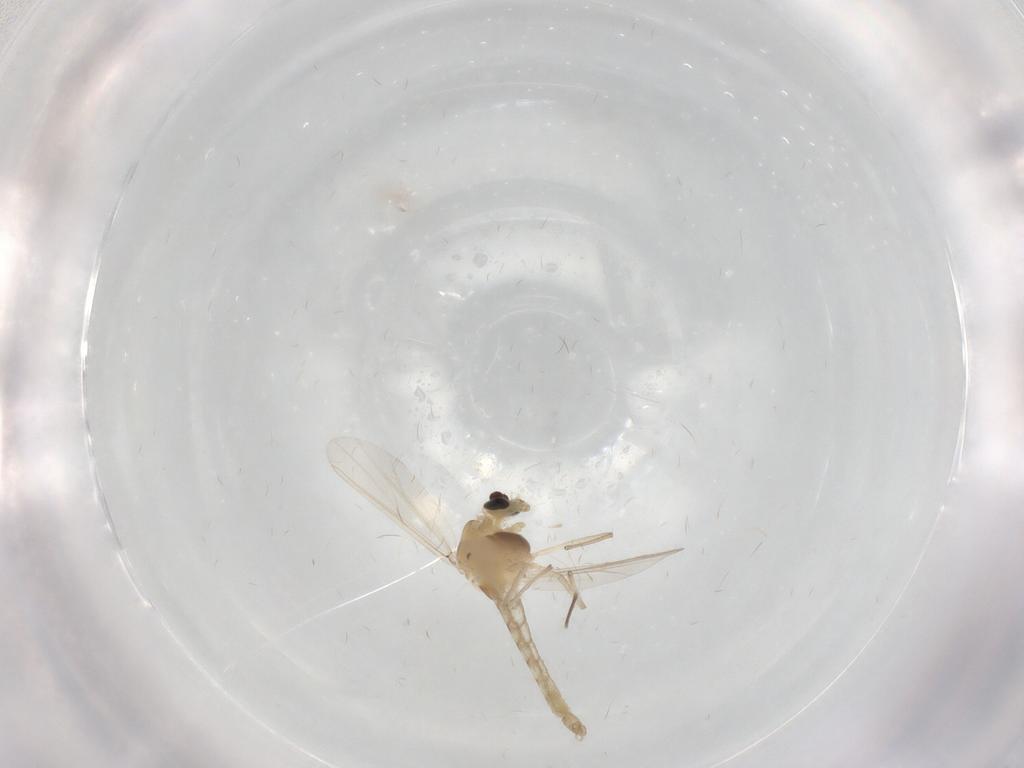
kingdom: Animalia
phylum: Arthropoda
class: Insecta
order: Diptera
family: Chironomidae
